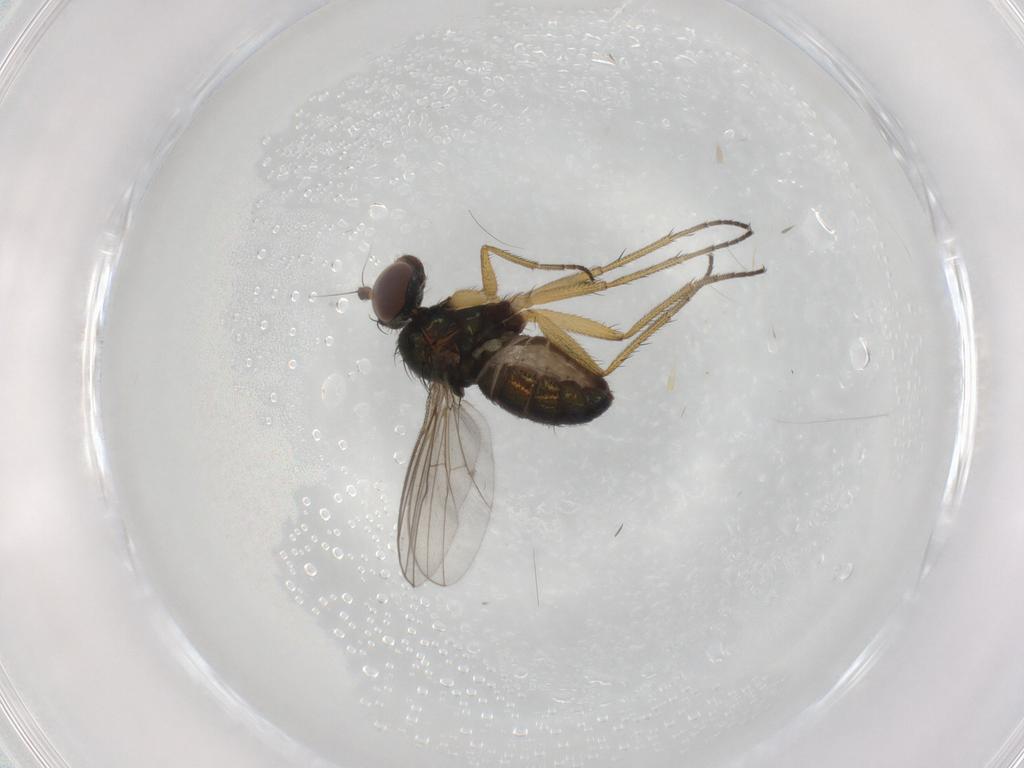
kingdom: Animalia
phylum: Arthropoda
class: Insecta
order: Diptera
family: Dolichopodidae
